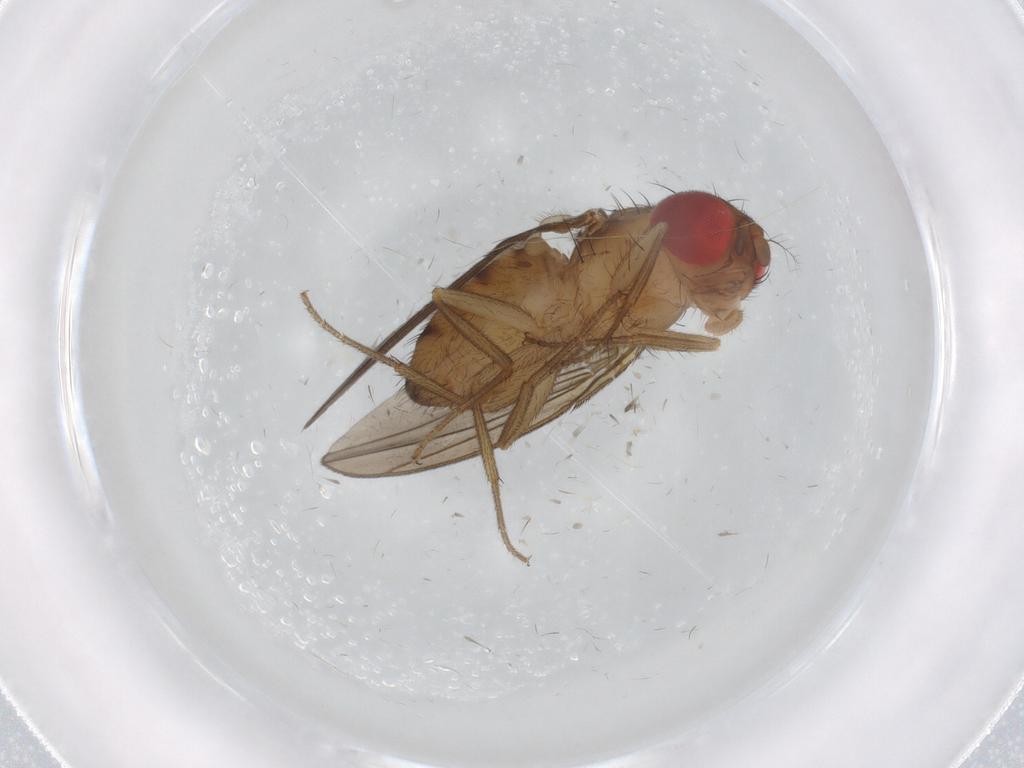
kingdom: Animalia
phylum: Arthropoda
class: Insecta
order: Diptera
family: Drosophilidae
